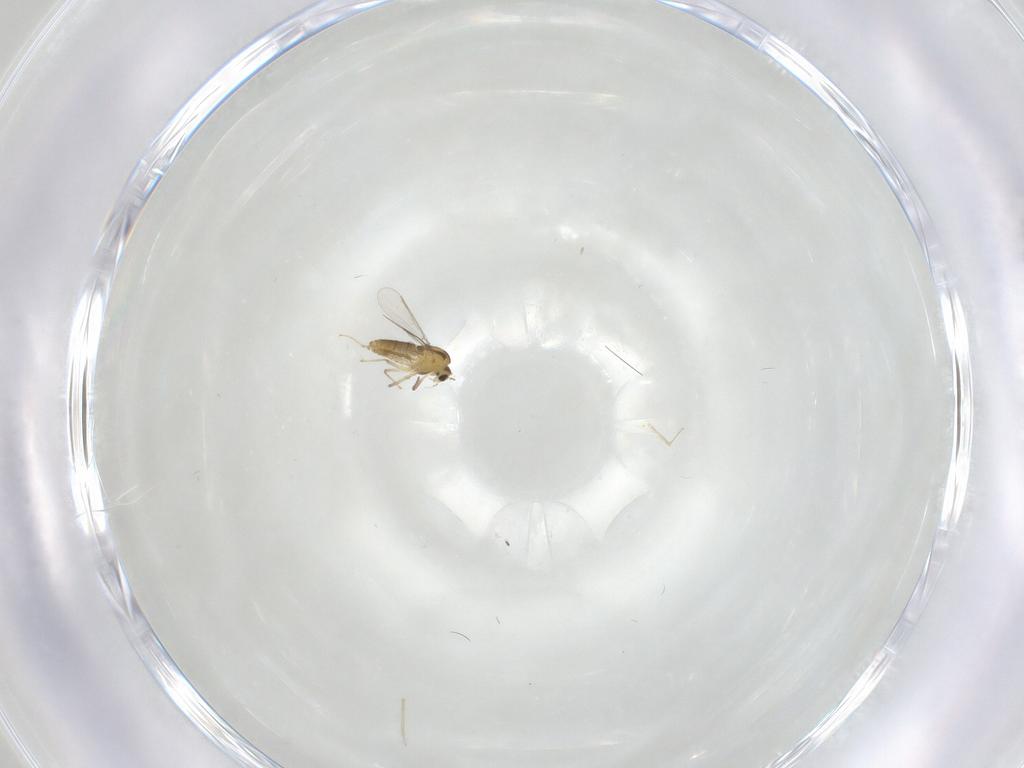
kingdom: Animalia
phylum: Arthropoda
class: Insecta
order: Diptera
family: Chironomidae
